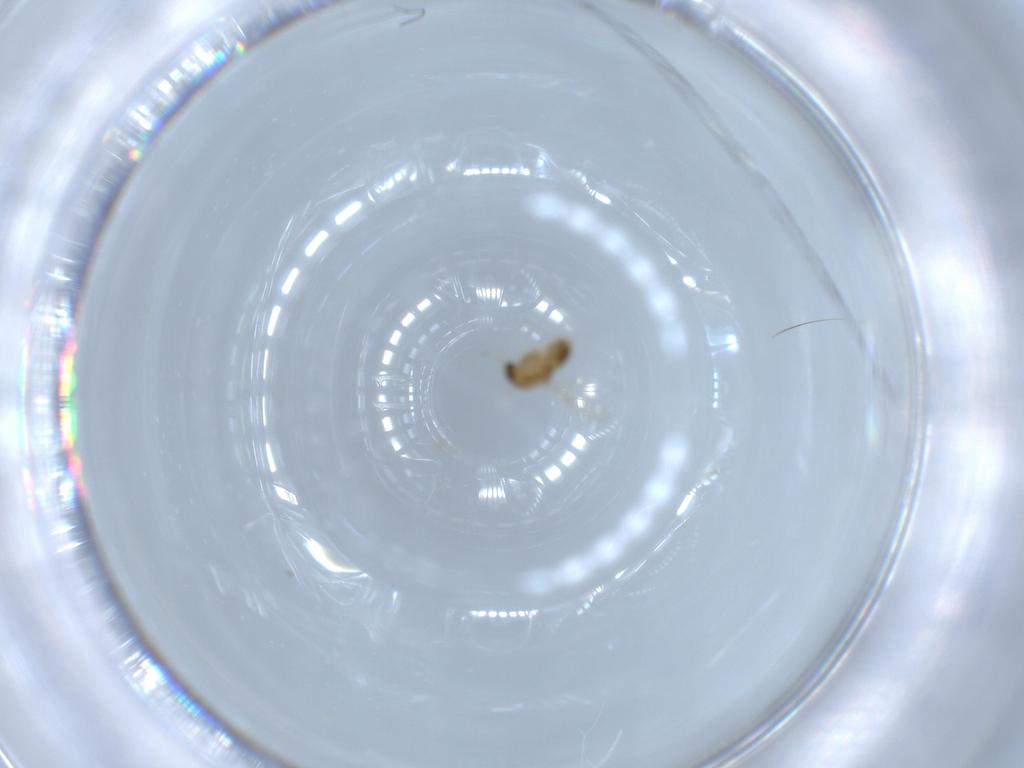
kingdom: Animalia
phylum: Arthropoda
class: Insecta
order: Diptera
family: Chironomidae
